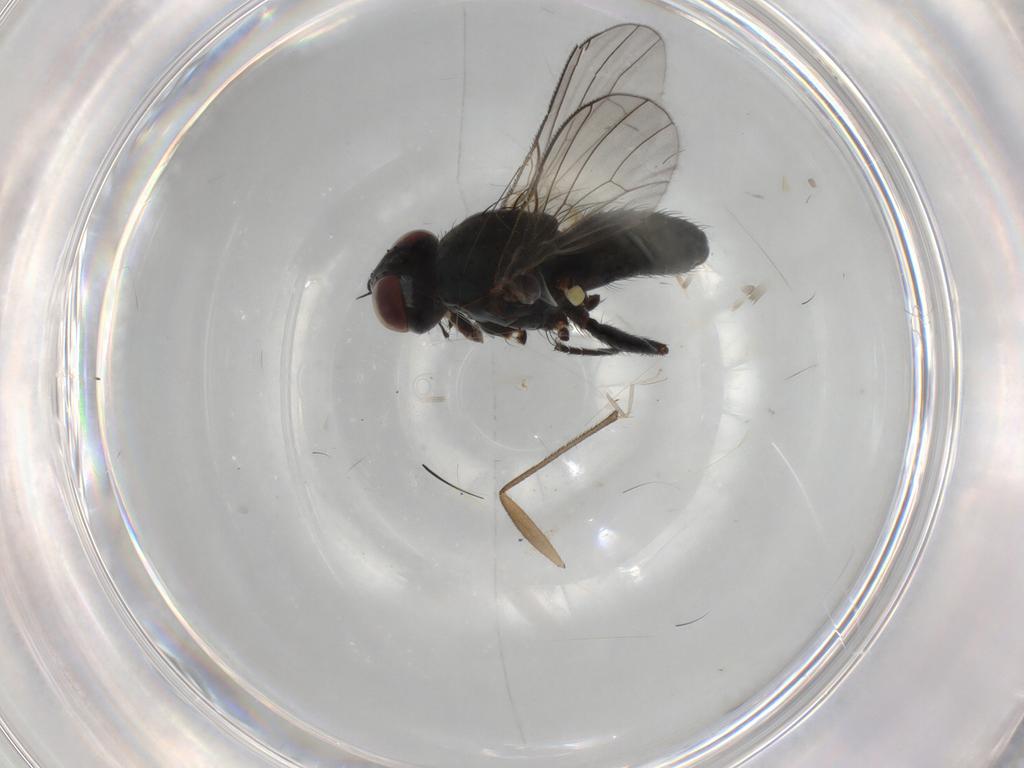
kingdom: Animalia
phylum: Arthropoda
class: Insecta
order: Diptera
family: Muscidae
